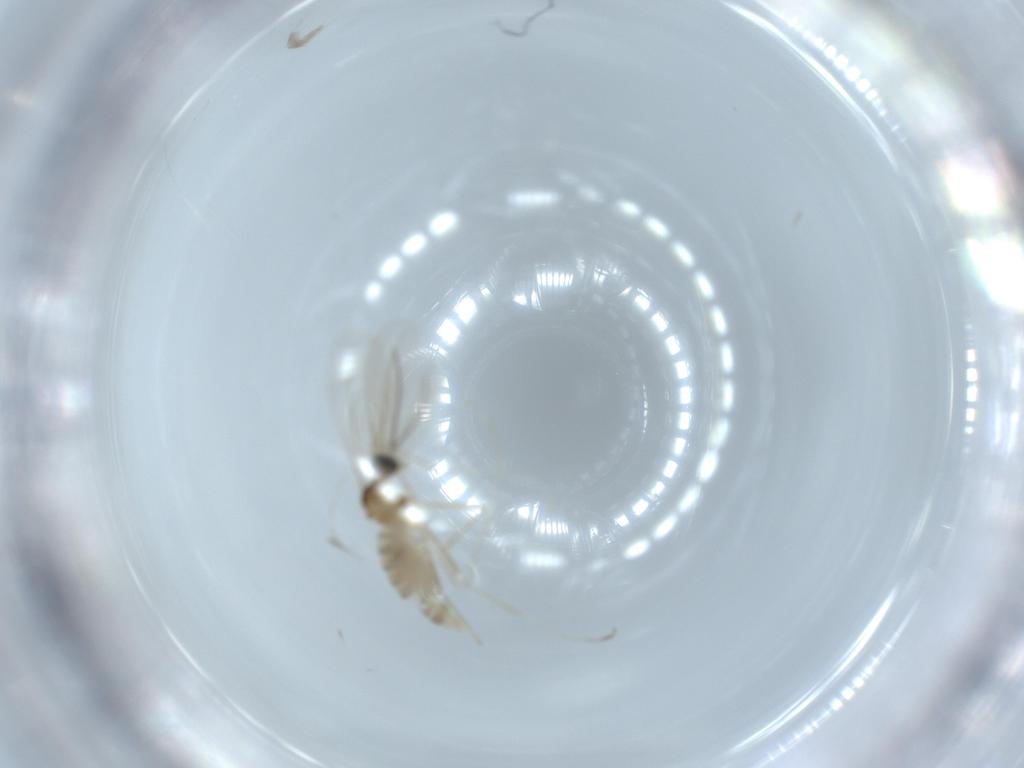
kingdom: Animalia
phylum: Arthropoda
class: Insecta
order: Diptera
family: Cecidomyiidae
